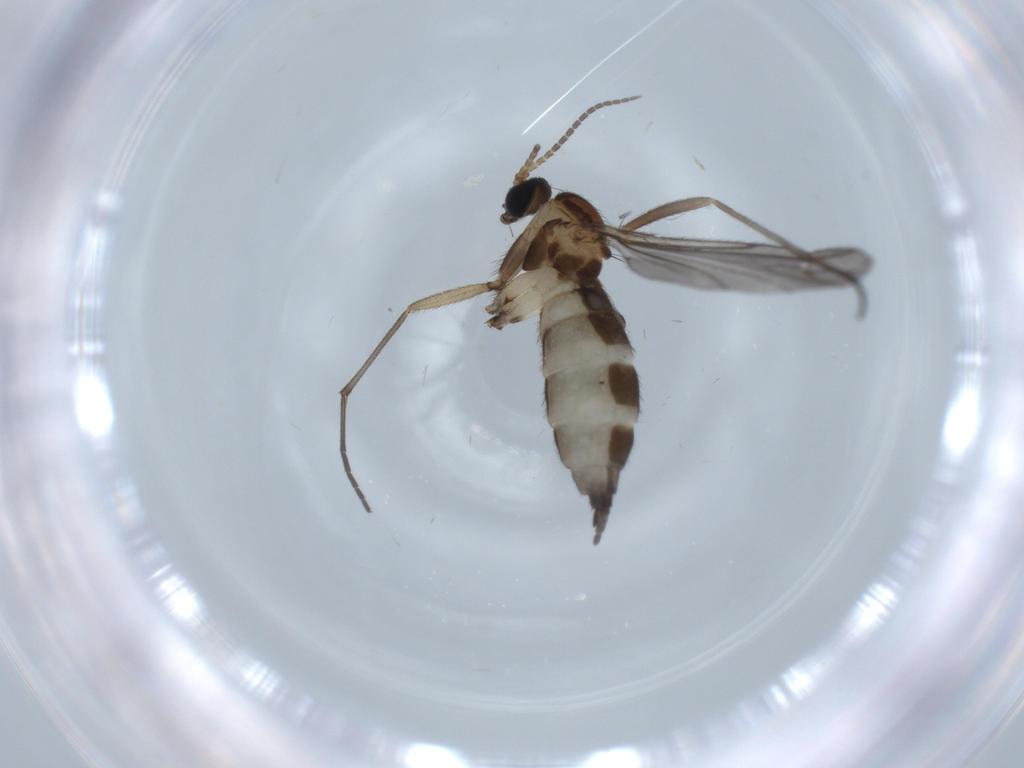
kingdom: Animalia
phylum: Arthropoda
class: Insecta
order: Diptera
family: Sciaridae
